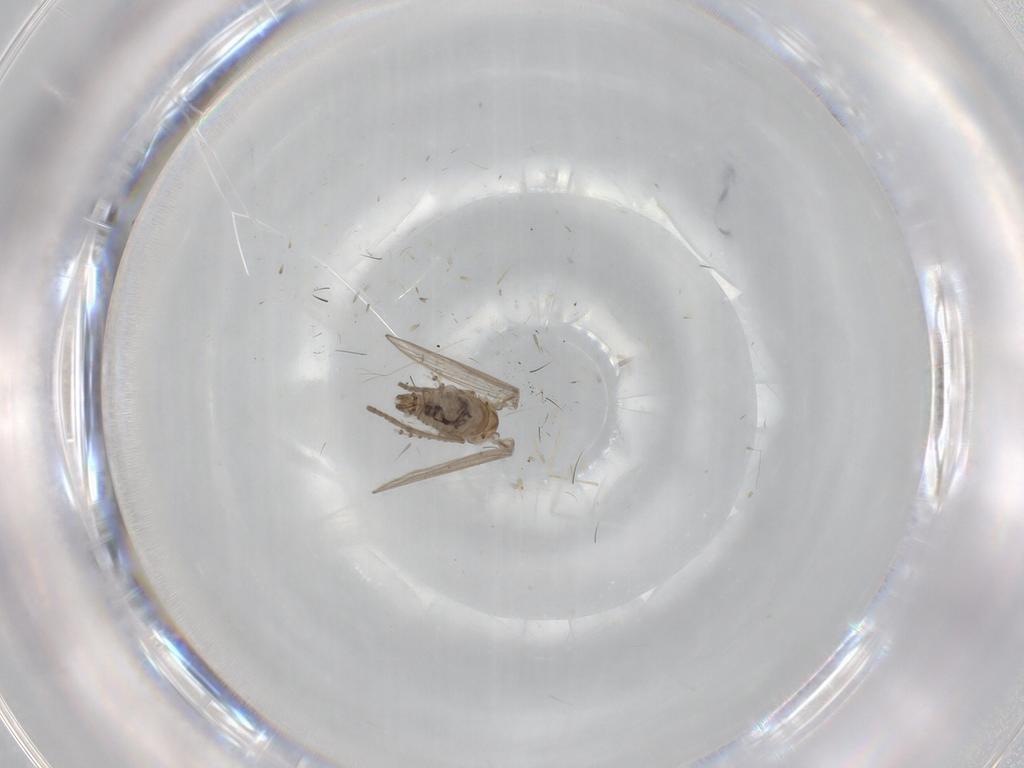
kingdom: Animalia
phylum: Arthropoda
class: Insecta
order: Diptera
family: Psychodidae
